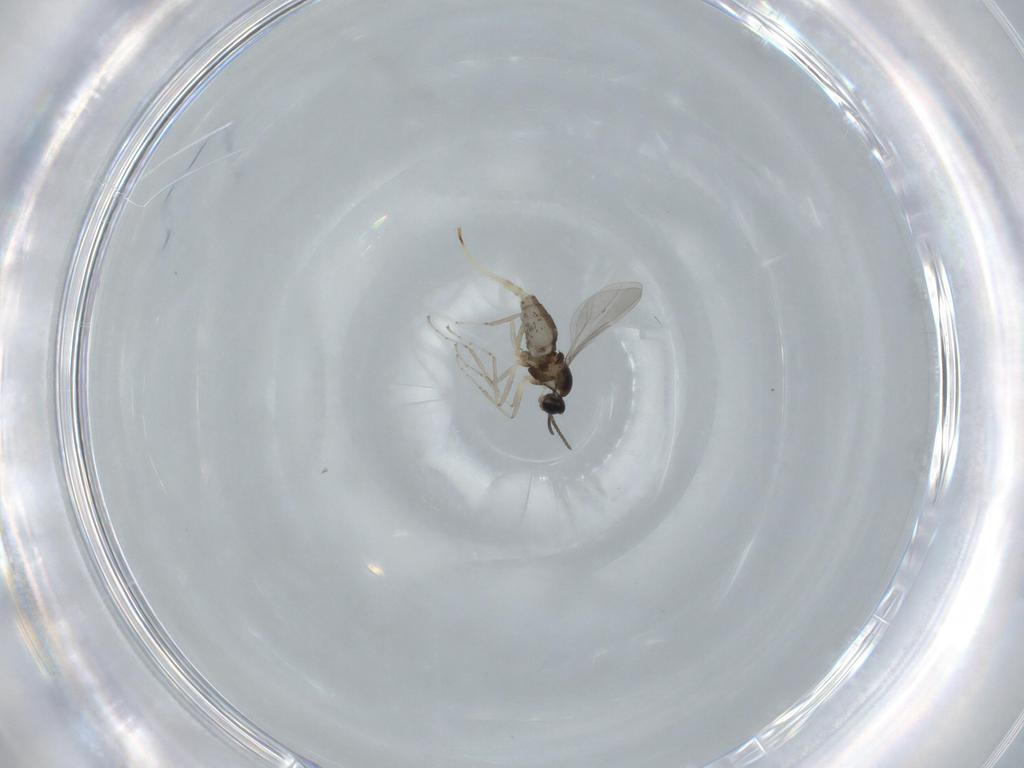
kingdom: Animalia
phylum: Arthropoda
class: Insecta
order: Diptera
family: Cecidomyiidae
